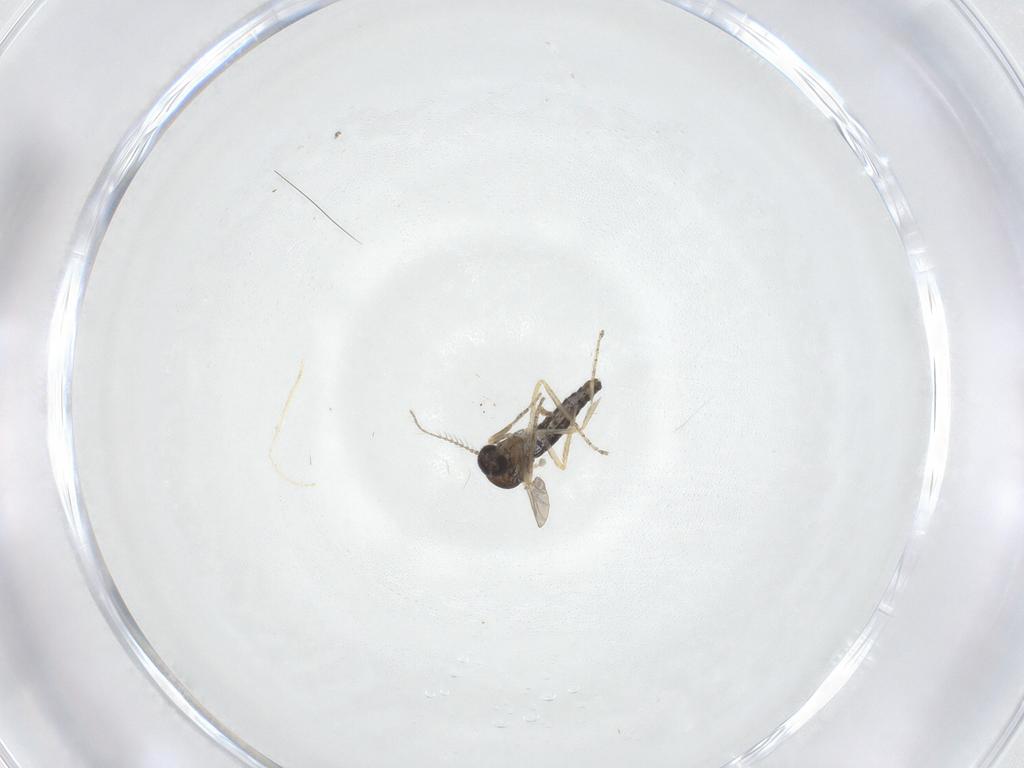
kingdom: Animalia
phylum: Arthropoda
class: Insecta
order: Diptera
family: Ceratopogonidae
